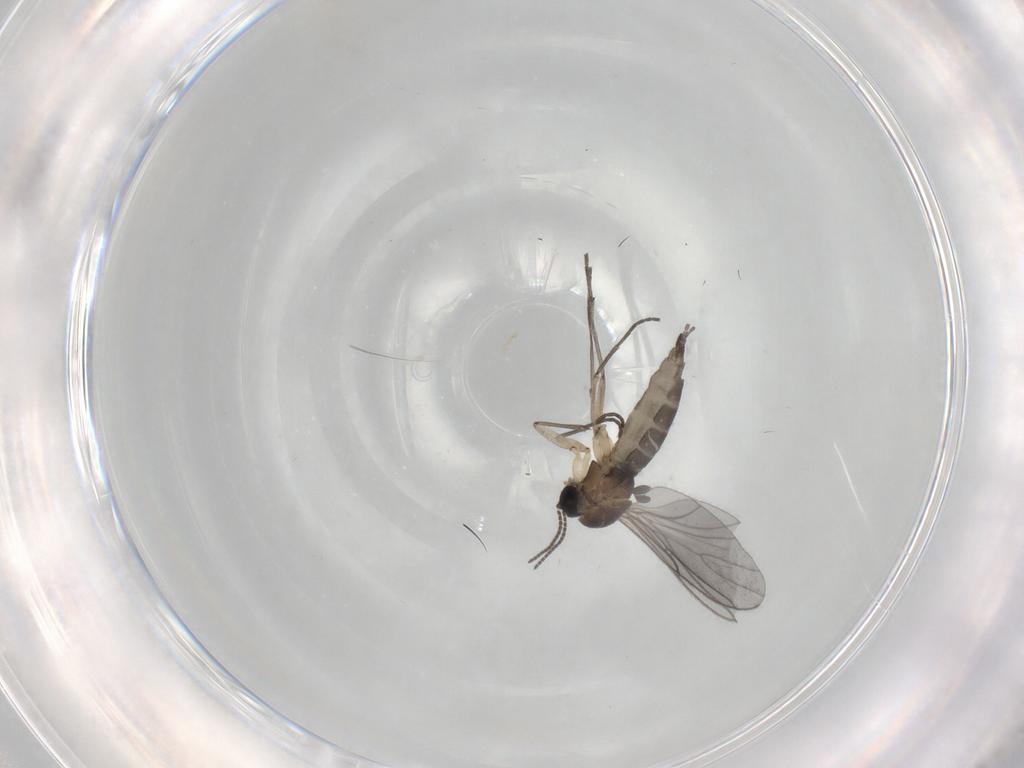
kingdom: Animalia
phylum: Arthropoda
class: Insecta
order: Diptera
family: Sciaridae
